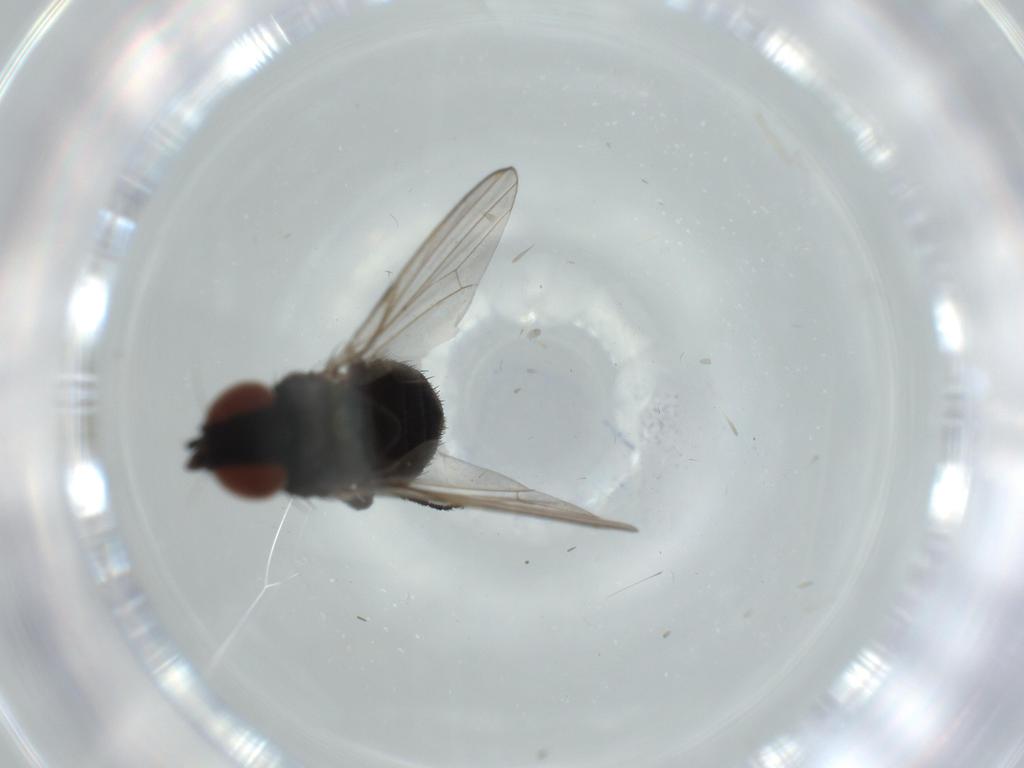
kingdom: Animalia
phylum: Arthropoda
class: Insecta
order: Diptera
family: Milichiidae
